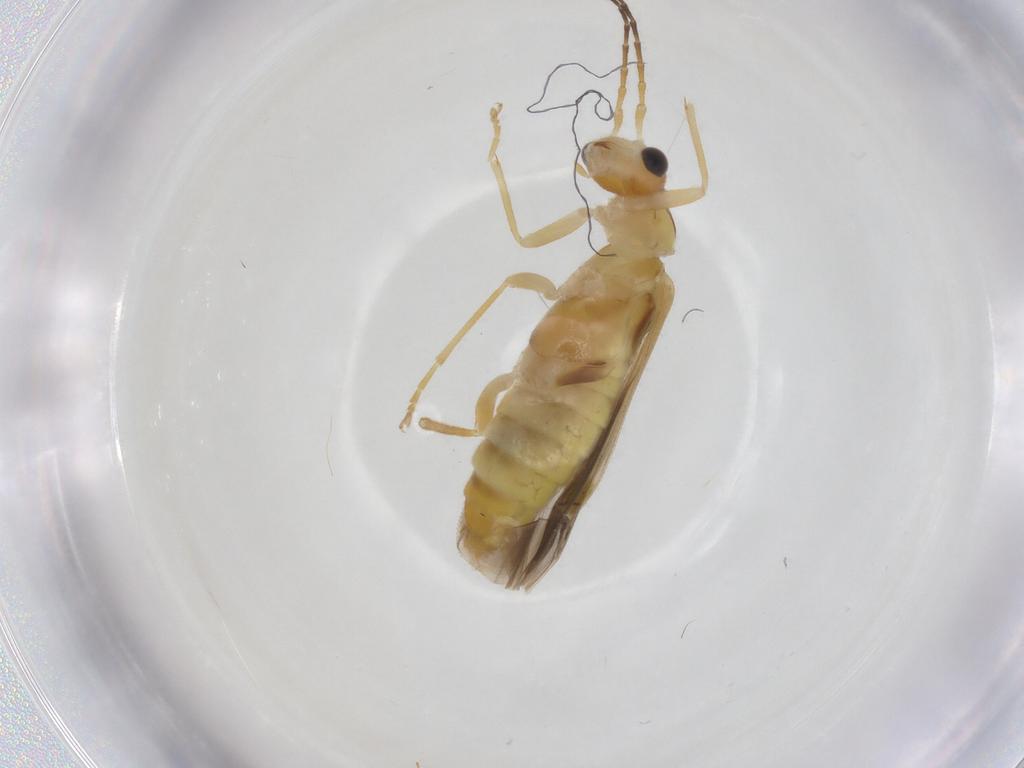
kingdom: Animalia
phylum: Arthropoda
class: Insecta
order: Coleoptera
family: Cantharidae
